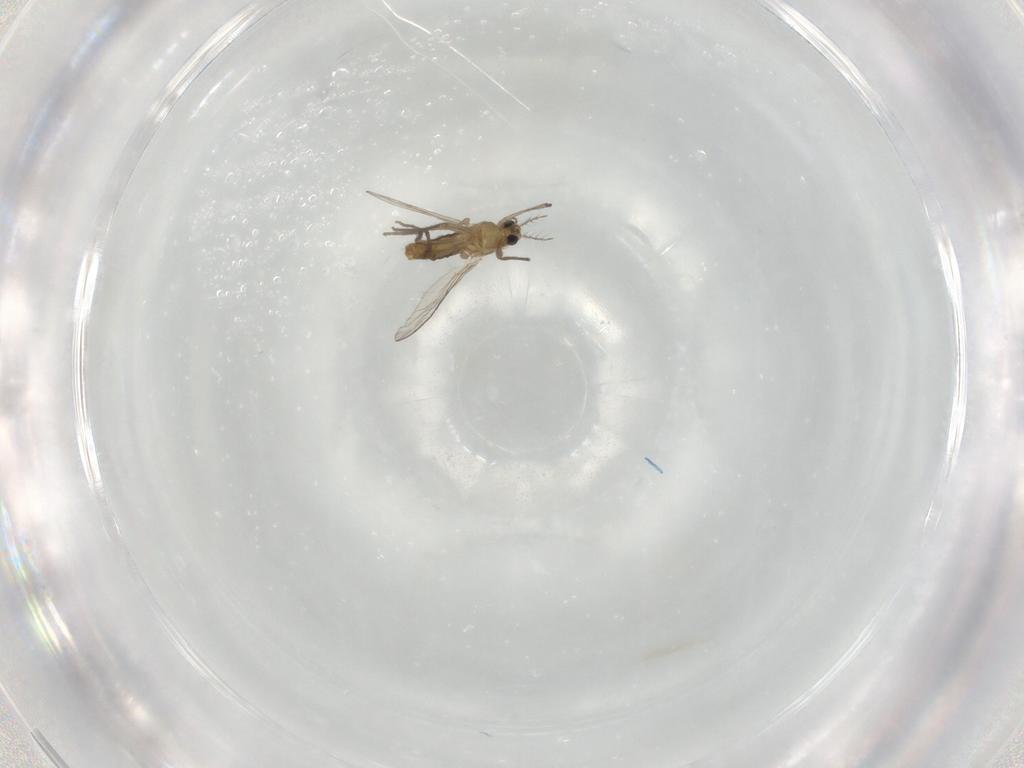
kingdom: Animalia
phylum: Arthropoda
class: Insecta
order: Diptera
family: Chironomidae
